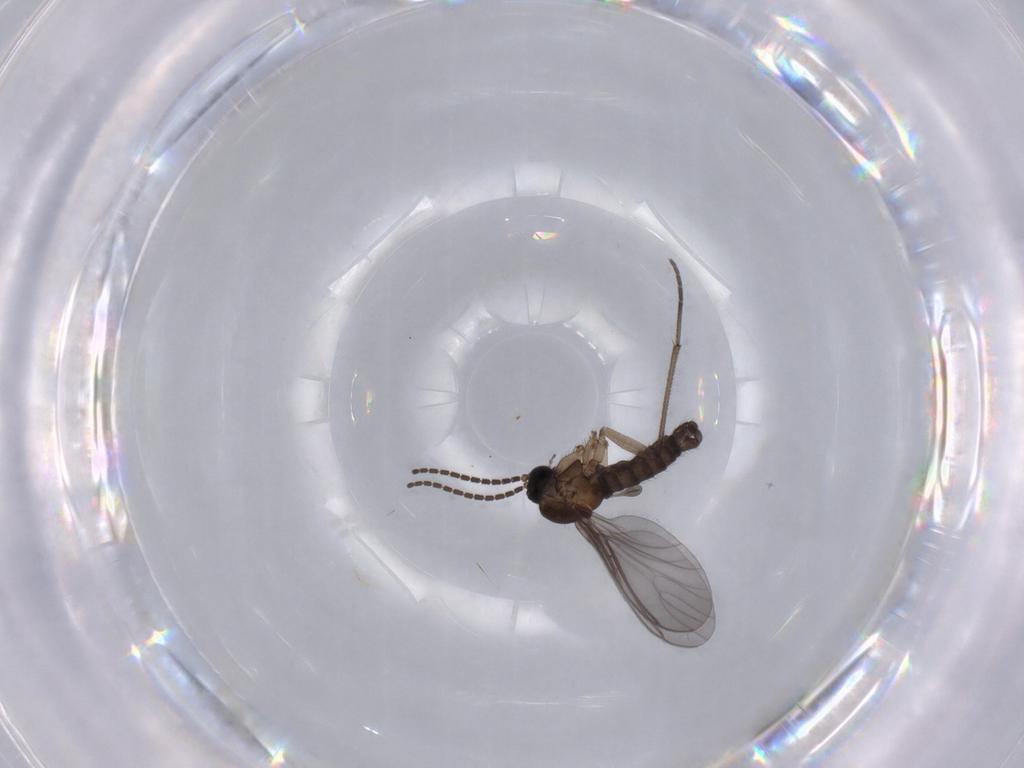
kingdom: Animalia
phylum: Arthropoda
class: Insecta
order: Diptera
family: Sciaridae
